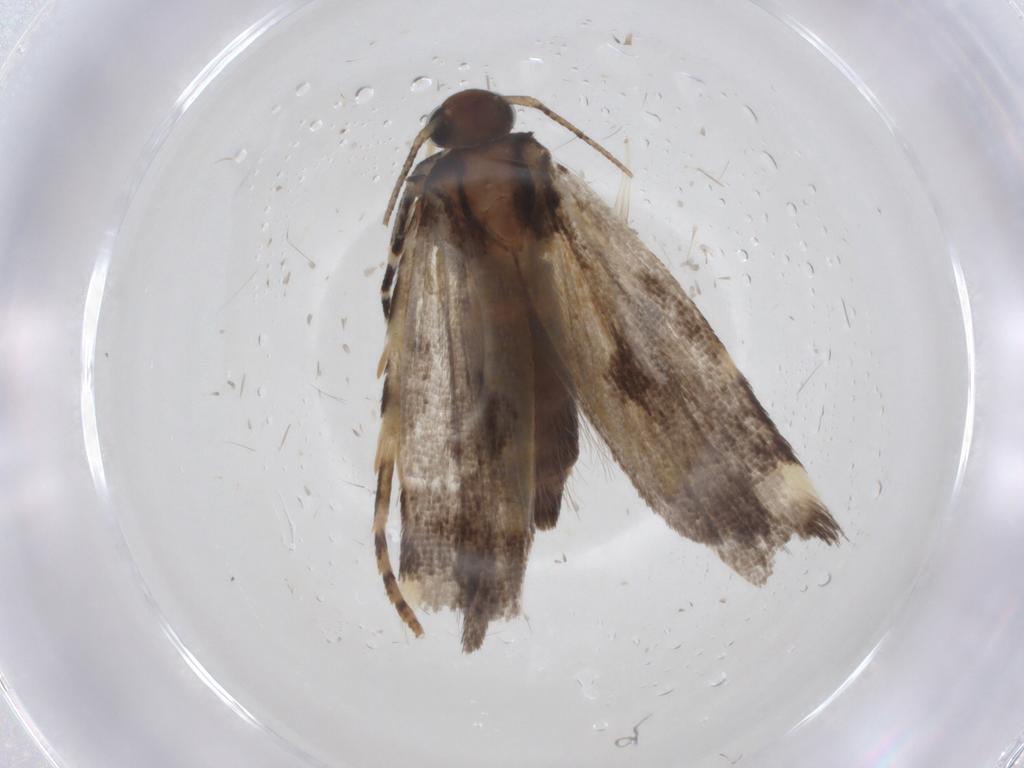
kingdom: Animalia
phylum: Arthropoda
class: Insecta
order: Lepidoptera
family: Gelechiidae
